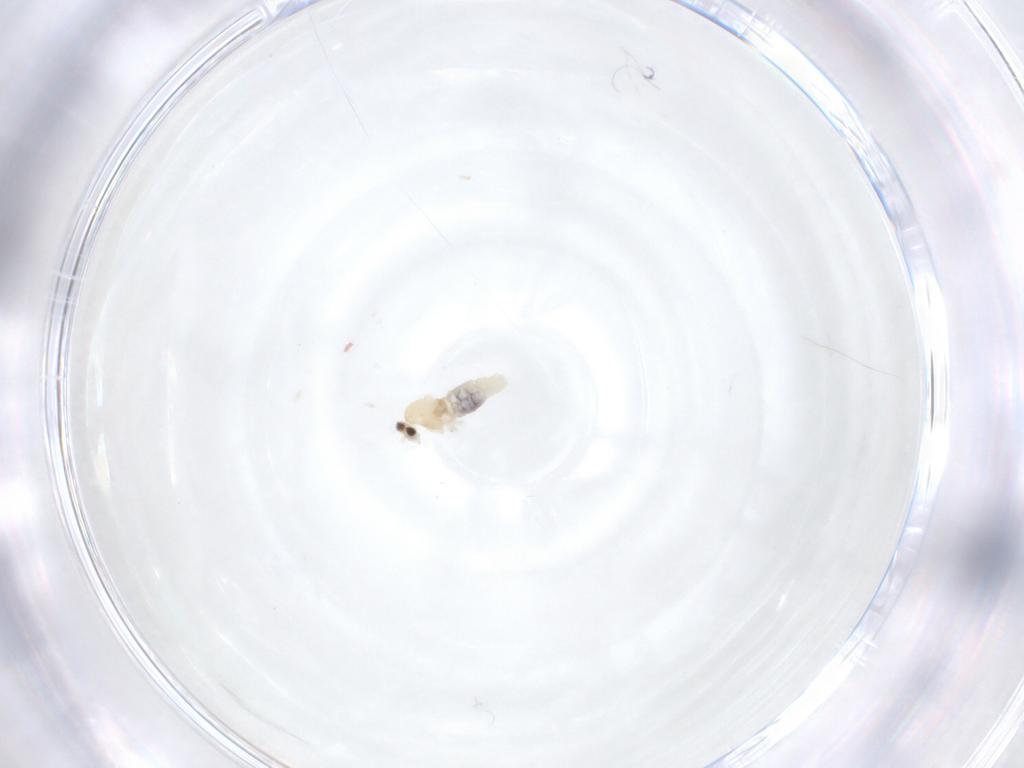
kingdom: Animalia
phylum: Arthropoda
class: Insecta
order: Diptera
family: Cecidomyiidae
